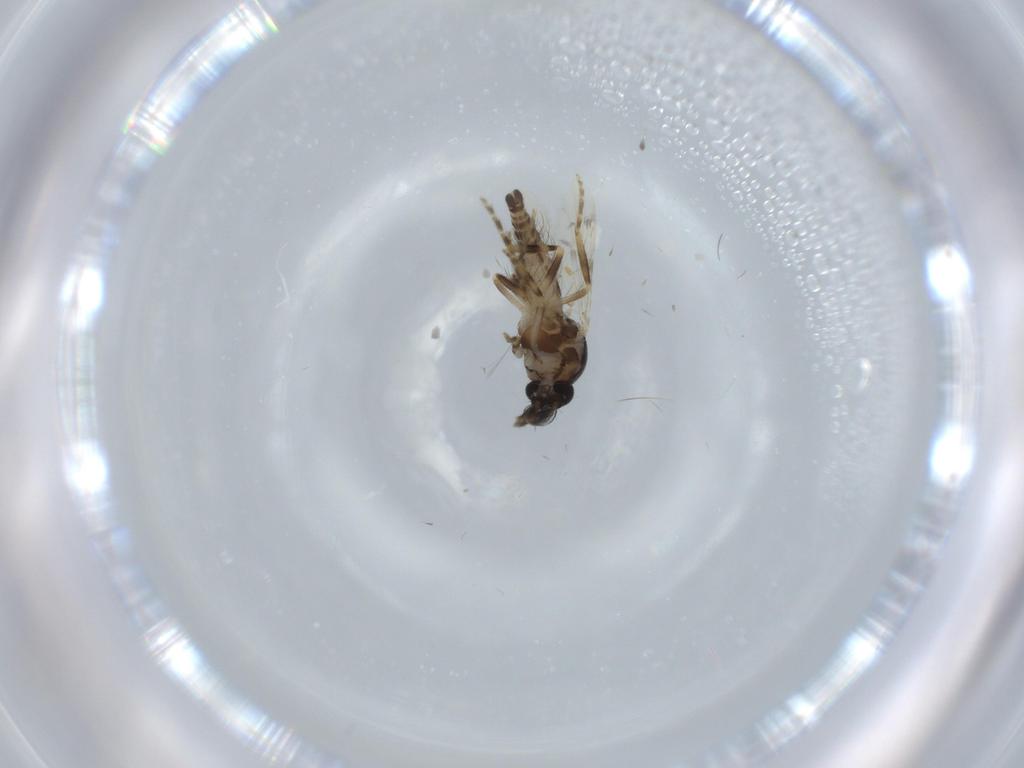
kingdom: Animalia
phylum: Arthropoda
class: Insecta
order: Diptera
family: Ceratopogonidae
